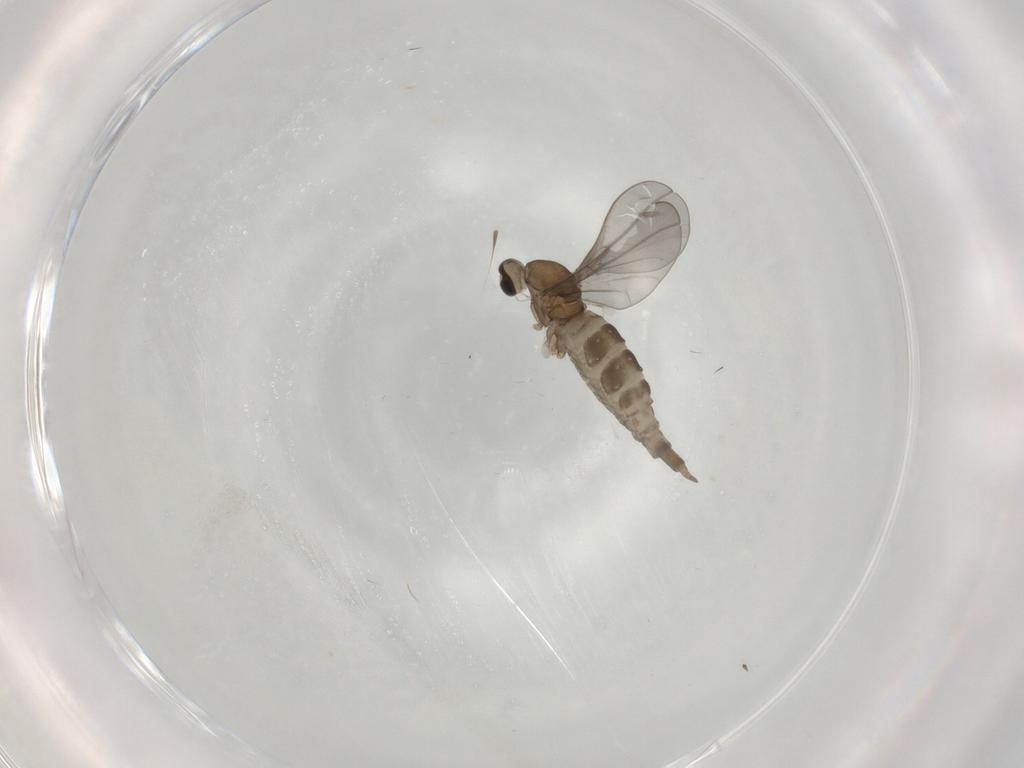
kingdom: Animalia
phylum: Arthropoda
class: Insecta
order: Diptera
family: Cecidomyiidae
